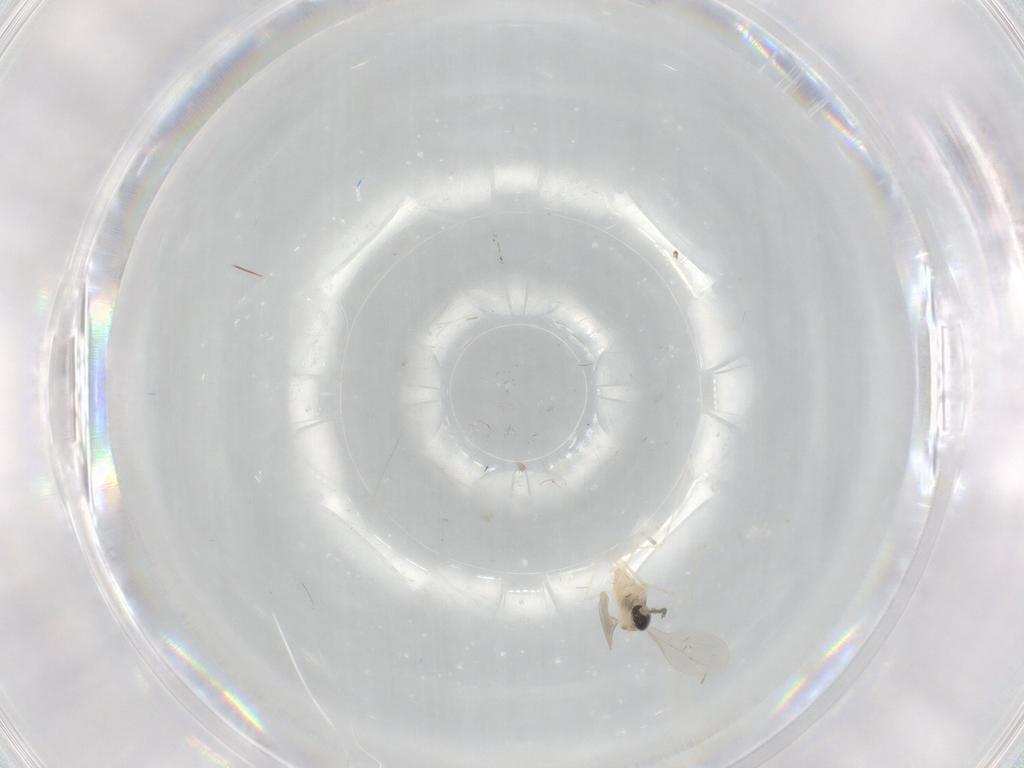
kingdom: Animalia
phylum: Arthropoda
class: Insecta
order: Diptera
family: Cecidomyiidae
